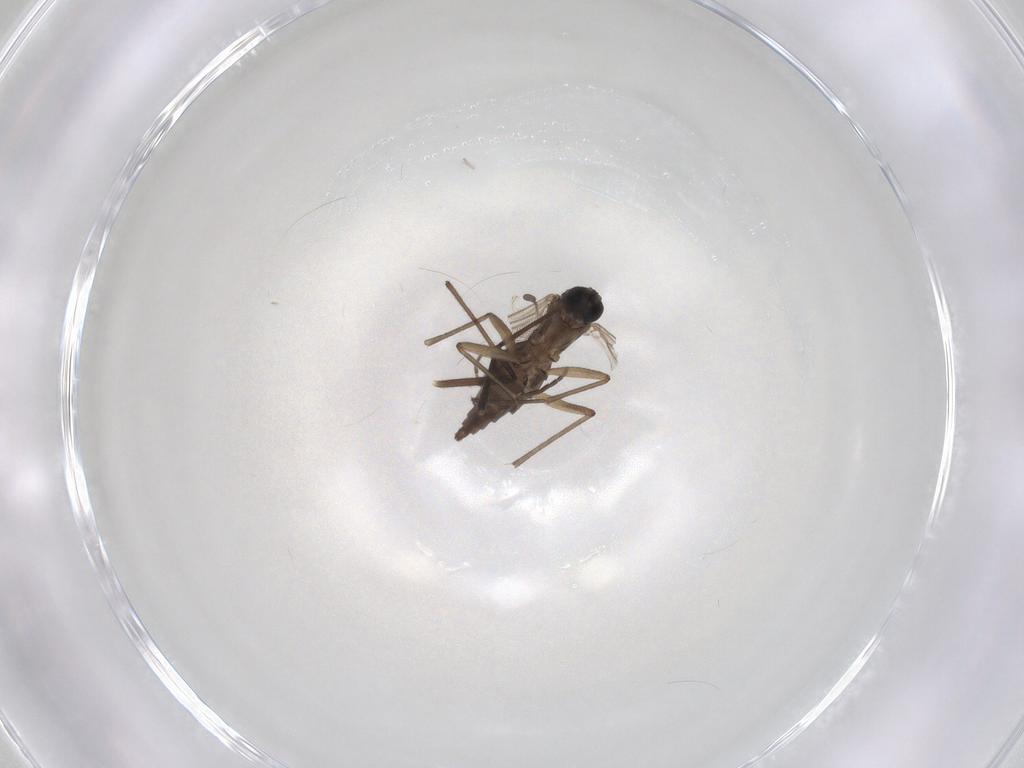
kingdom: Animalia
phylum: Arthropoda
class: Insecta
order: Diptera
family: Sciaridae
